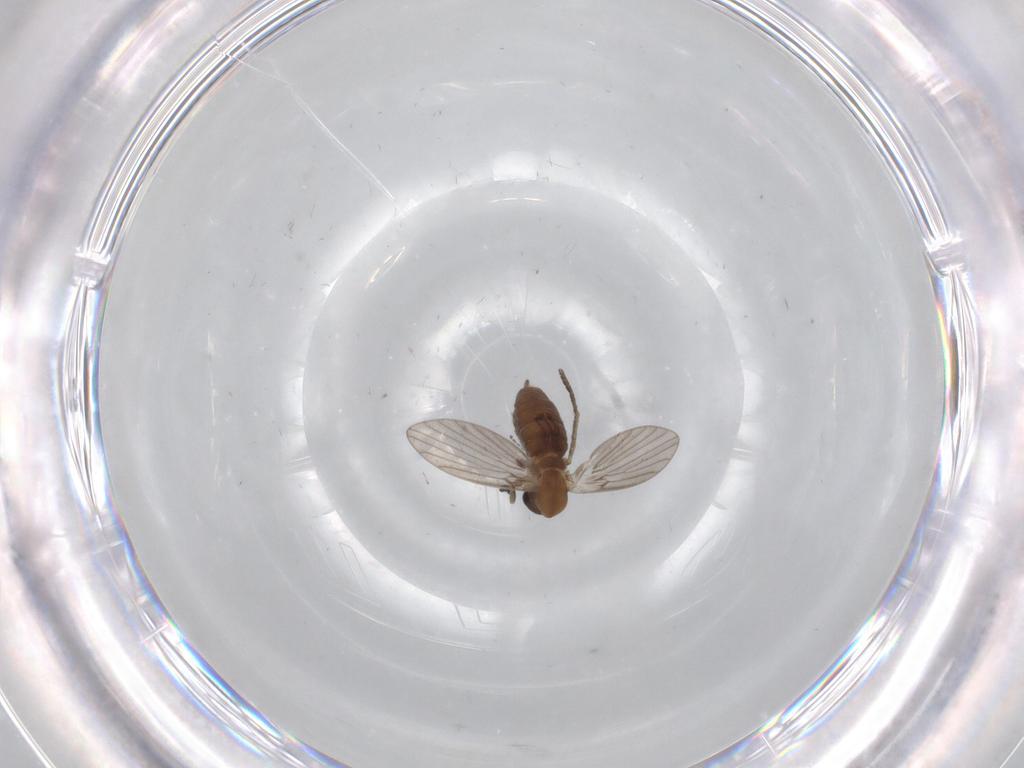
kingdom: Animalia
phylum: Arthropoda
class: Insecta
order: Diptera
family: Psychodidae
